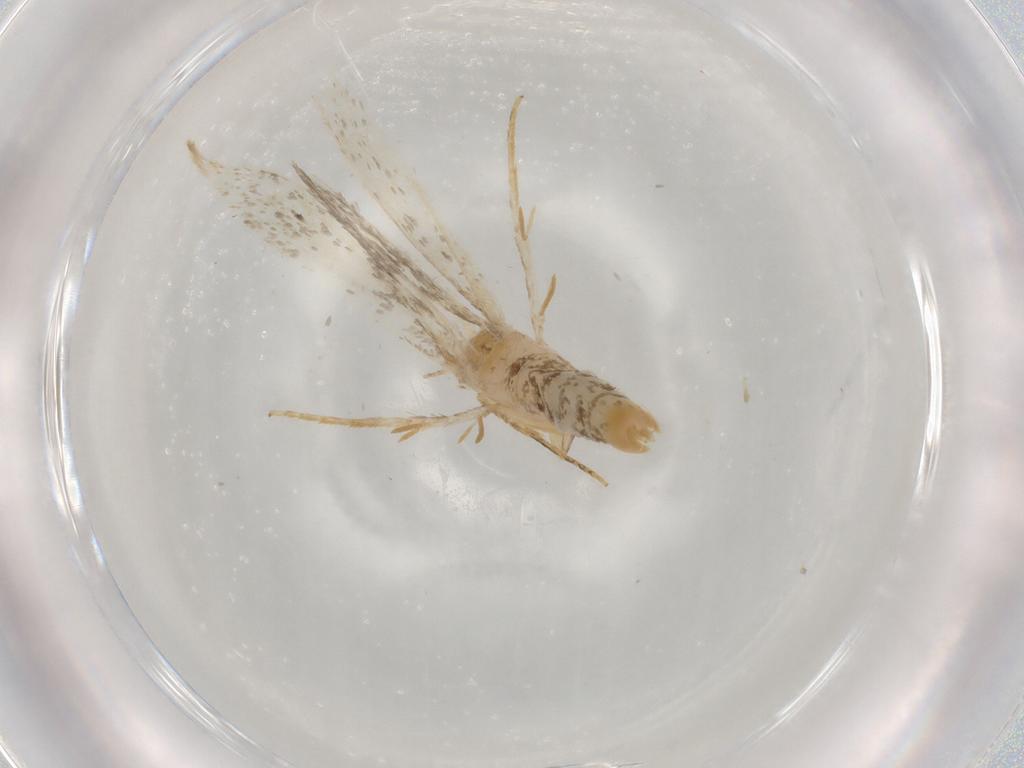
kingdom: Animalia
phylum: Arthropoda
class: Insecta
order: Lepidoptera
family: Tineidae
